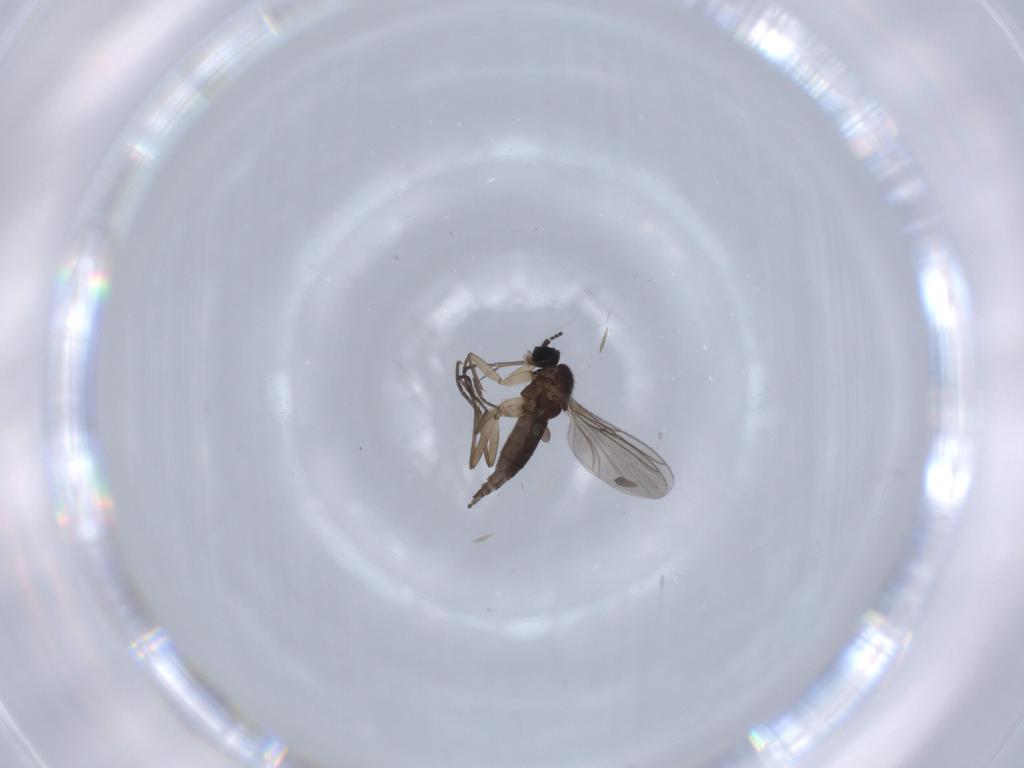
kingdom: Animalia
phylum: Arthropoda
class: Insecta
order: Diptera
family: Sciaridae
